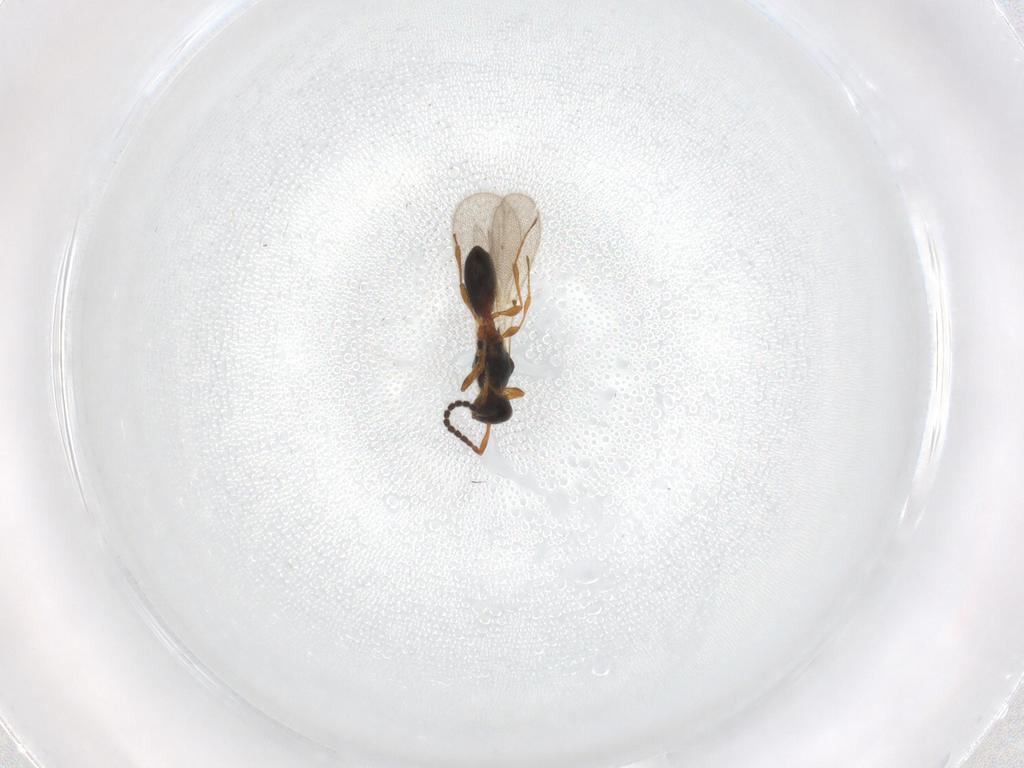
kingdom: Animalia
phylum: Arthropoda
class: Insecta
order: Hymenoptera
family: Diapriidae
